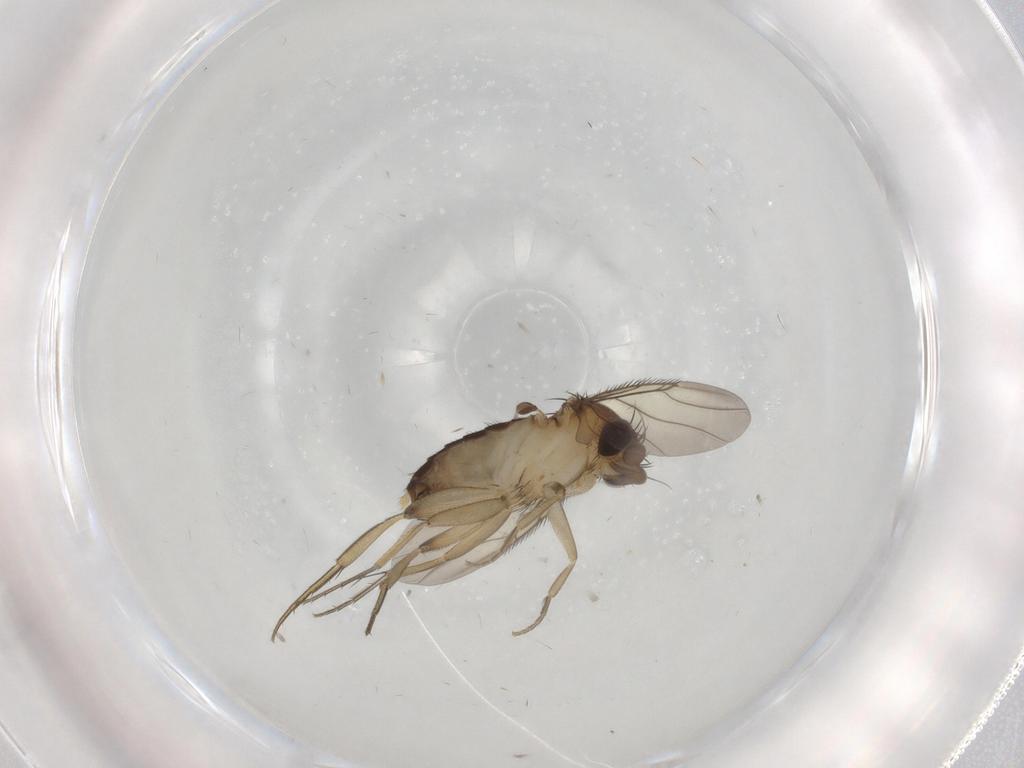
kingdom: Animalia
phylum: Arthropoda
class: Insecta
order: Diptera
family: Phoridae
